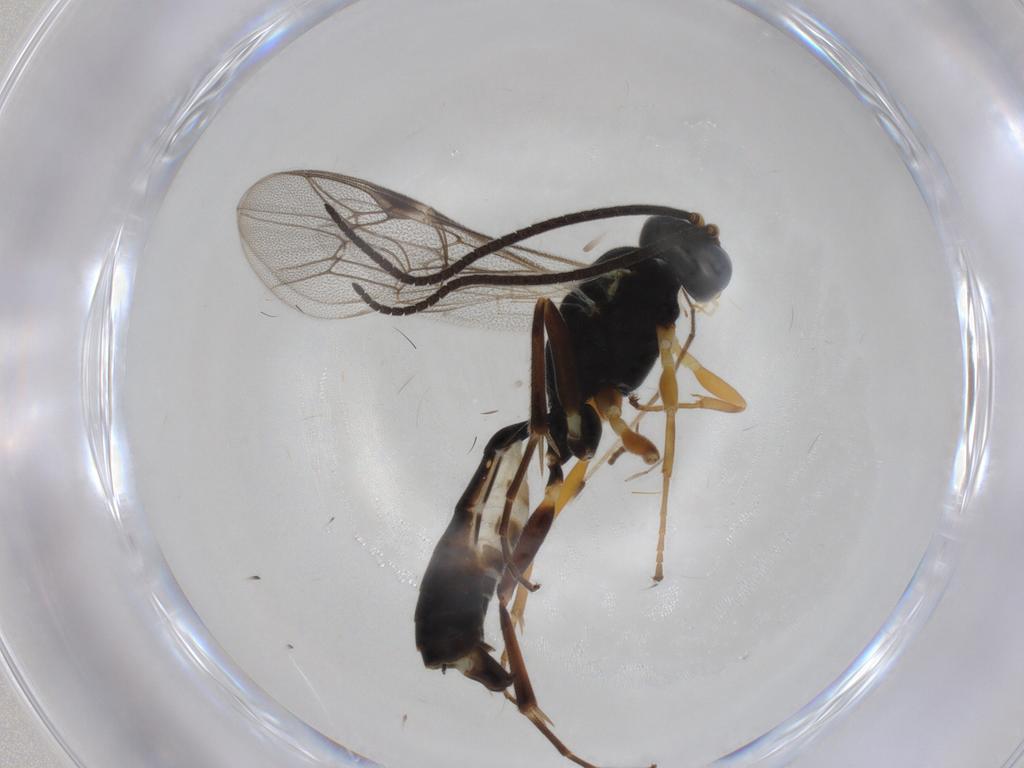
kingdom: Animalia
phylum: Arthropoda
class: Insecta
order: Hymenoptera
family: Ichneumonidae
